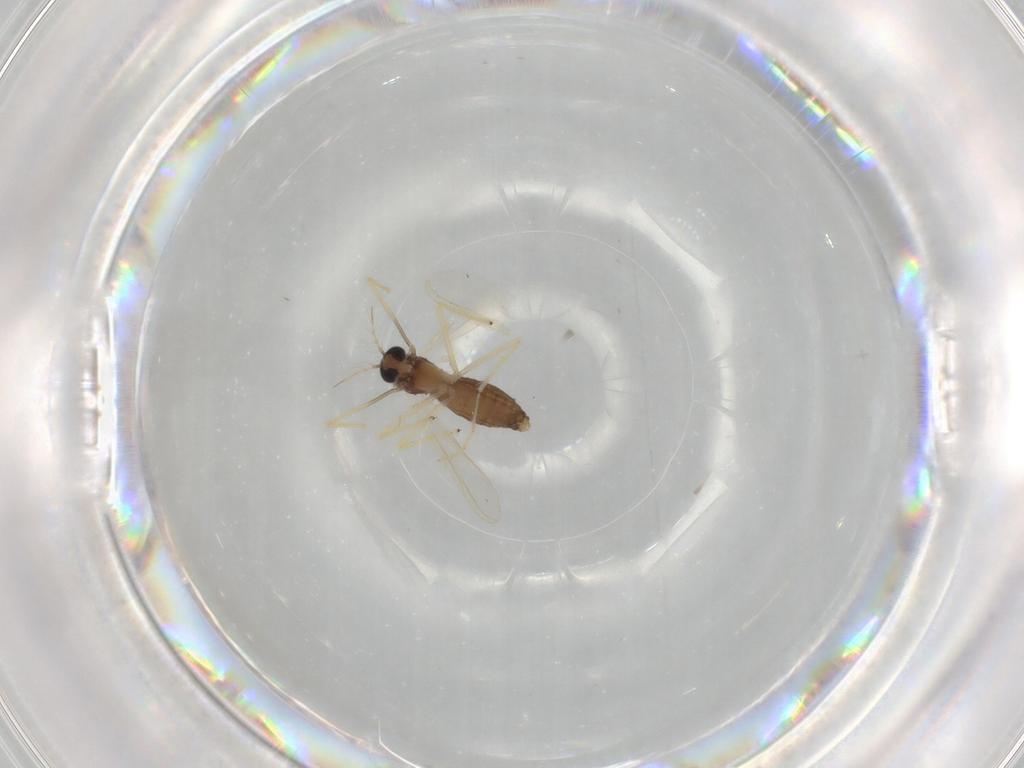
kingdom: Animalia
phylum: Arthropoda
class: Insecta
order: Diptera
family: Chironomidae
